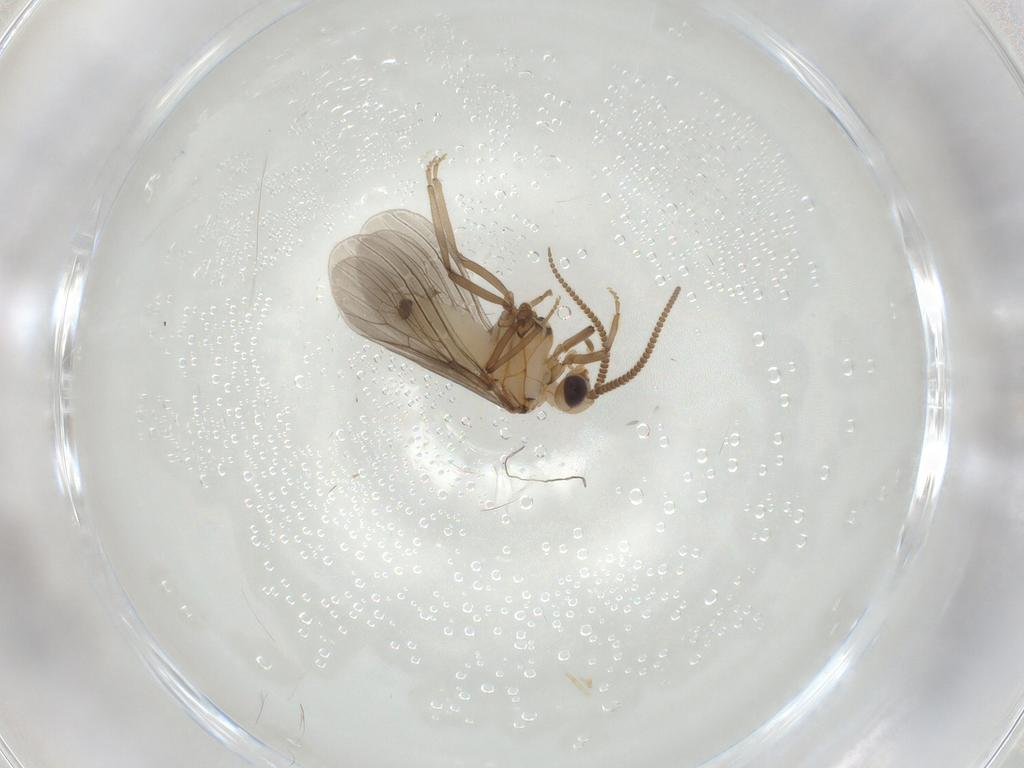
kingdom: Animalia
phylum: Arthropoda
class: Insecta
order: Neuroptera
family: Coniopterygidae
